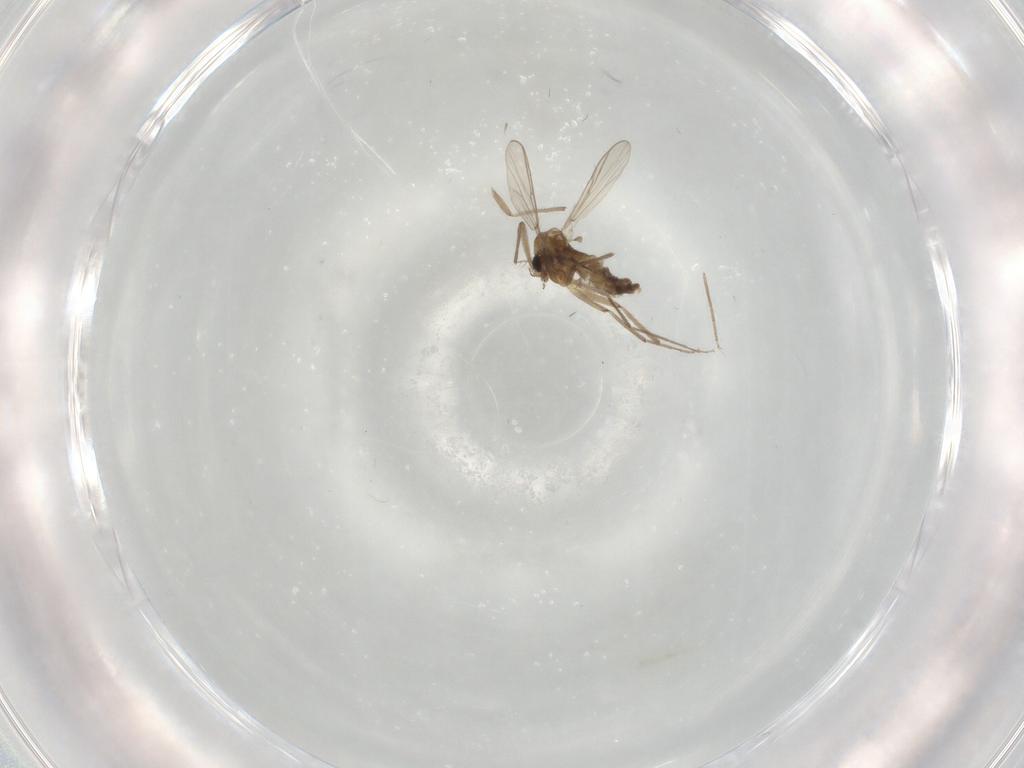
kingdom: Animalia
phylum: Arthropoda
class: Insecta
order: Diptera
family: Chironomidae
